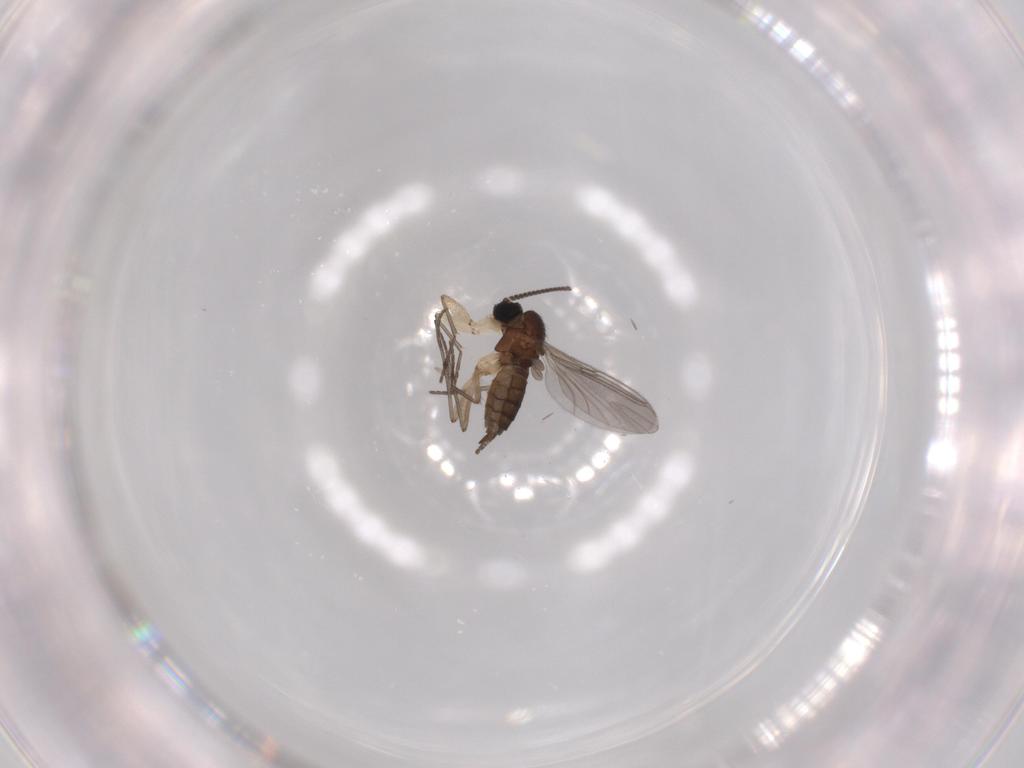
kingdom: Animalia
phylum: Arthropoda
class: Insecta
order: Diptera
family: Sciaridae
